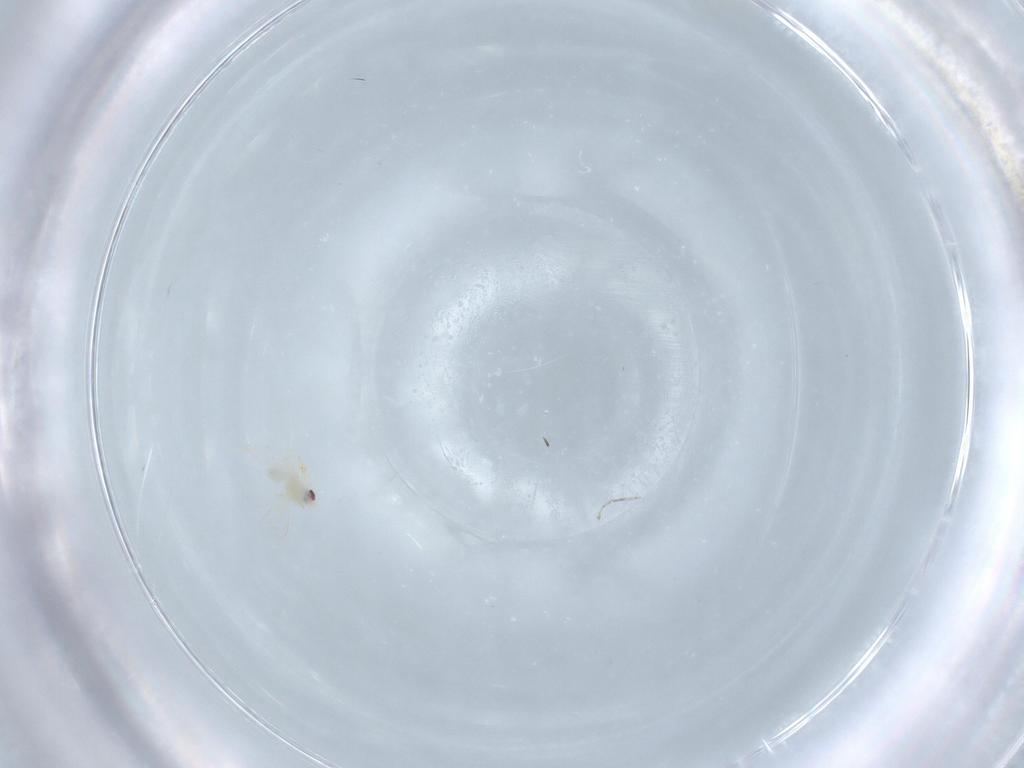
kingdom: Animalia
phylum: Arthropoda
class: Insecta
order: Hemiptera
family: Aleyrodidae
